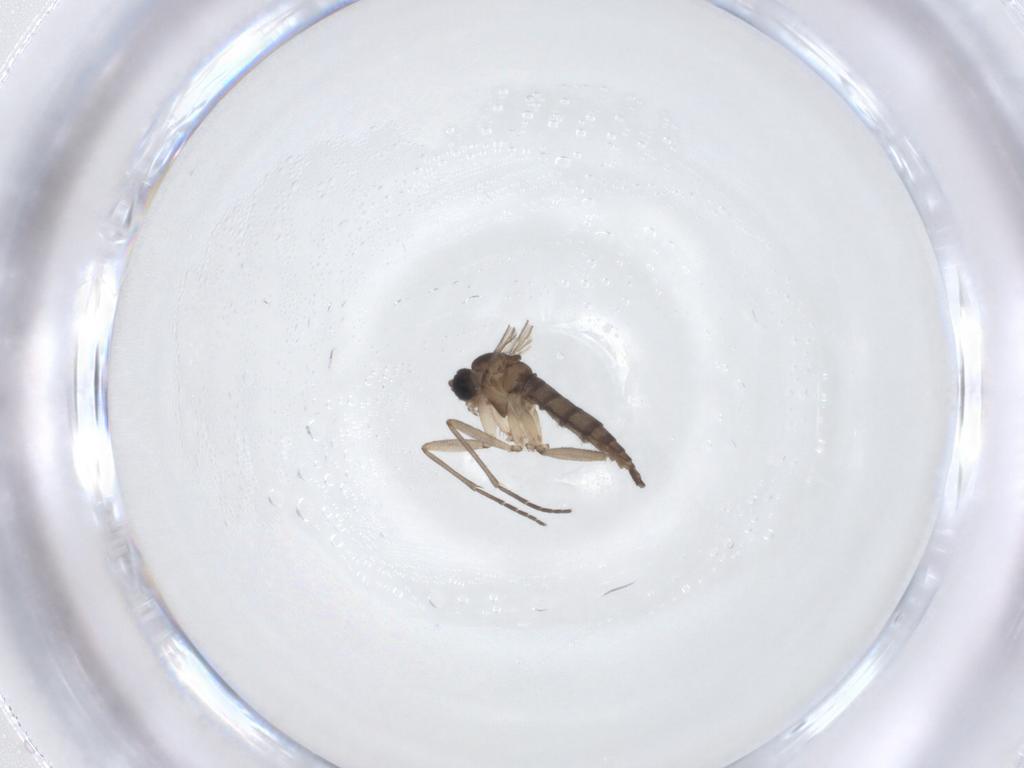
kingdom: Animalia
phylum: Arthropoda
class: Insecta
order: Diptera
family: Sciaridae
